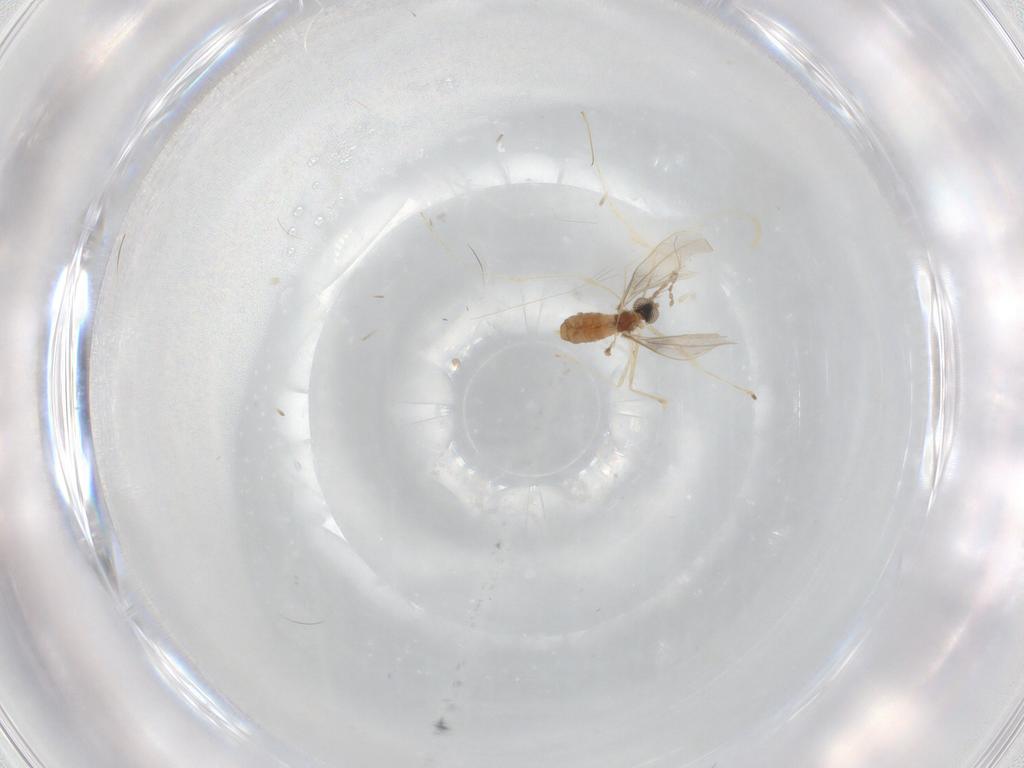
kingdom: Animalia
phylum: Arthropoda
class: Insecta
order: Diptera
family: Cecidomyiidae
